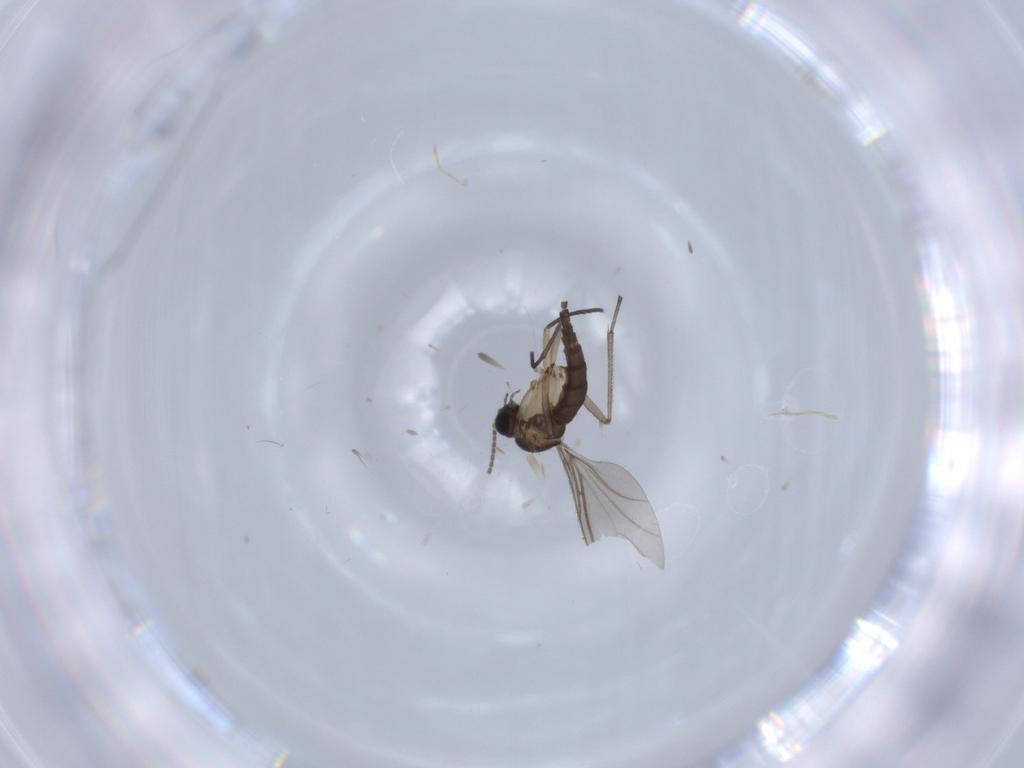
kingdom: Animalia
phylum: Arthropoda
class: Insecta
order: Diptera
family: Sciaridae
